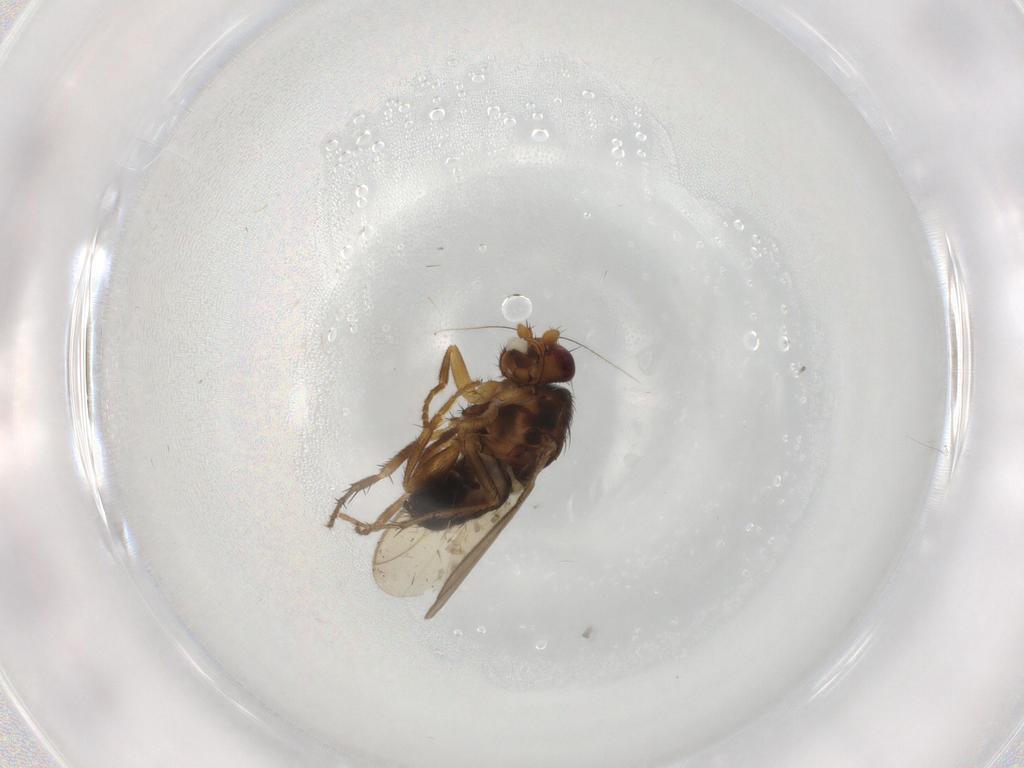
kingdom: Animalia
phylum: Arthropoda
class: Insecta
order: Diptera
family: Sphaeroceridae
